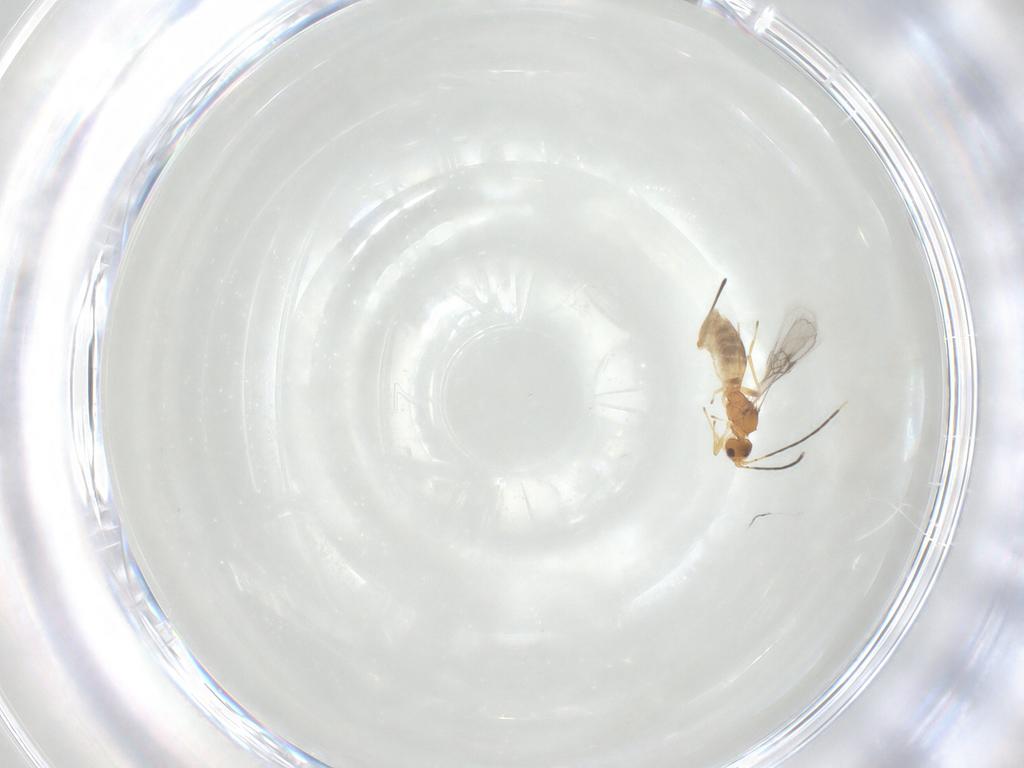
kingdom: Animalia
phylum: Arthropoda
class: Insecta
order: Hymenoptera
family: Braconidae
